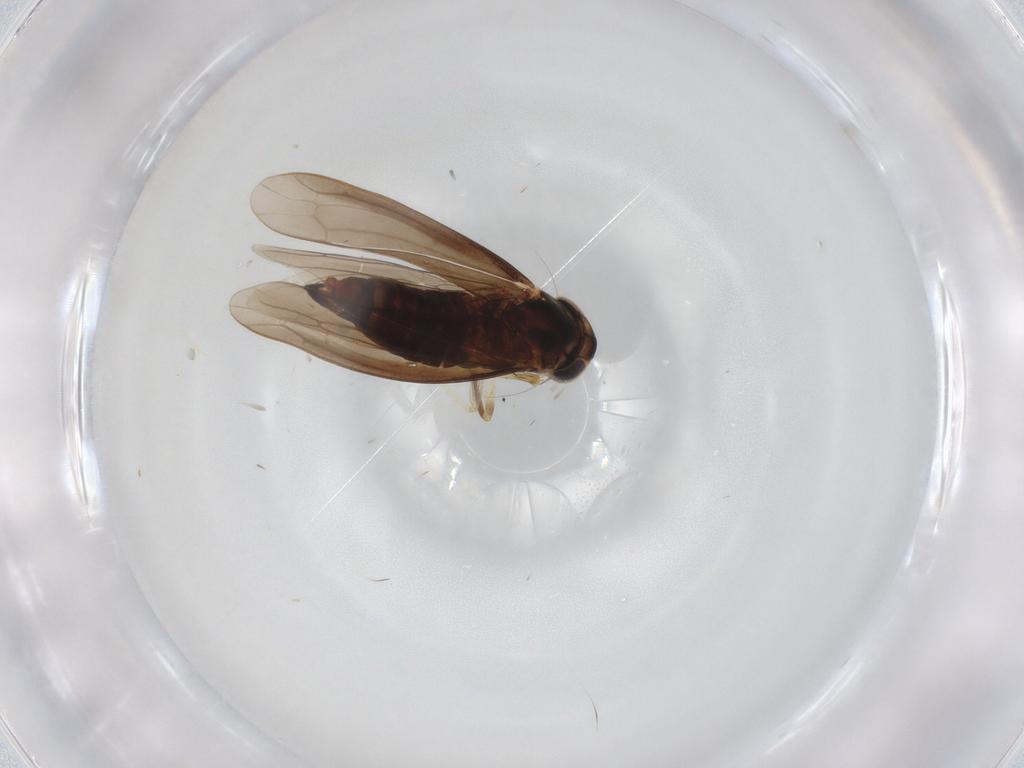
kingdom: Animalia
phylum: Arthropoda
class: Insecta
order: Hemiptera
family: Cicadellidae
